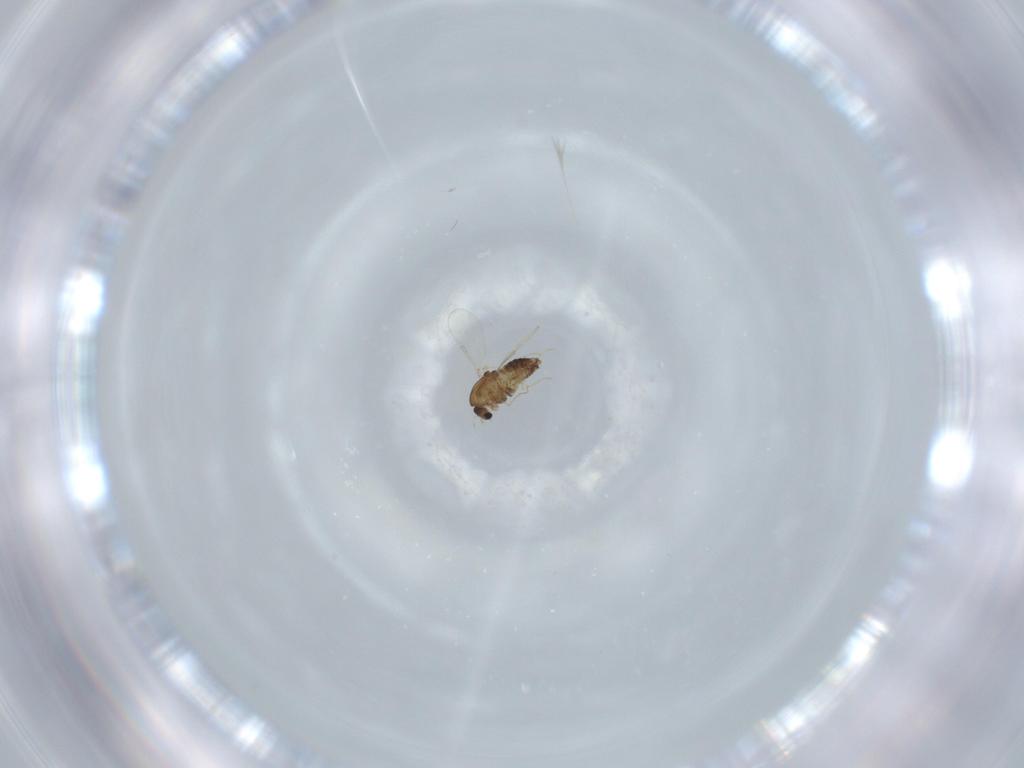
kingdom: Animalia
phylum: Arthropoda
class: Insecta
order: Diptera
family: Chironomidae
